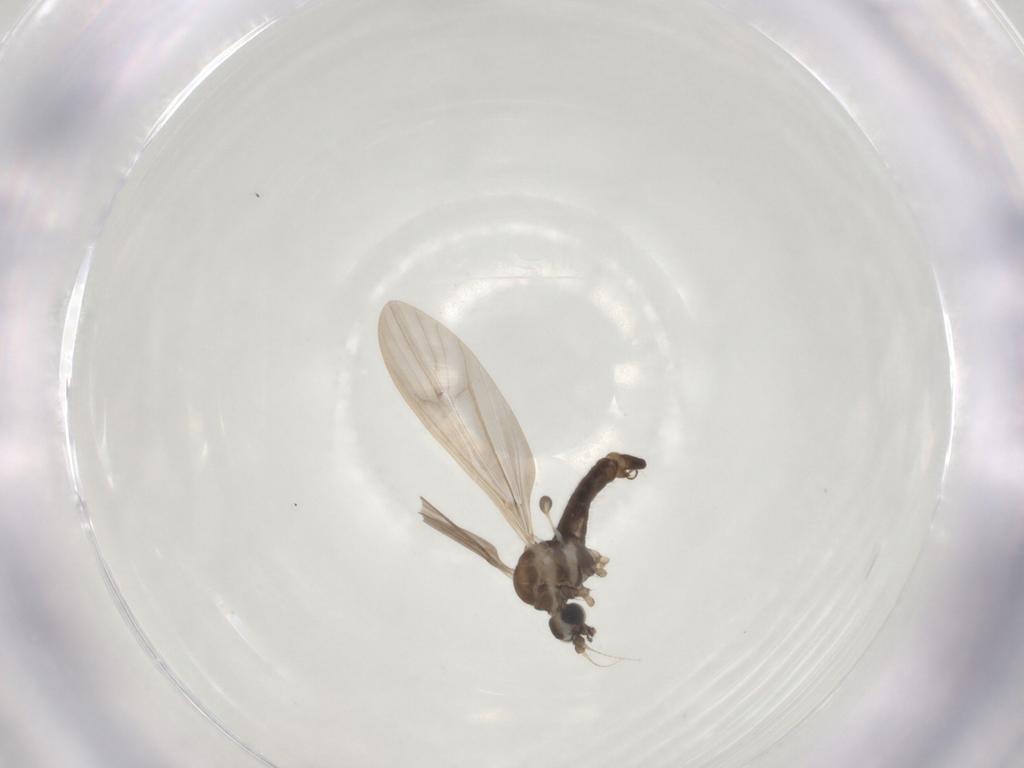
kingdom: Animalia
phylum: Arthropoda
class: Insecta
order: Diptera
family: Limoniidae
